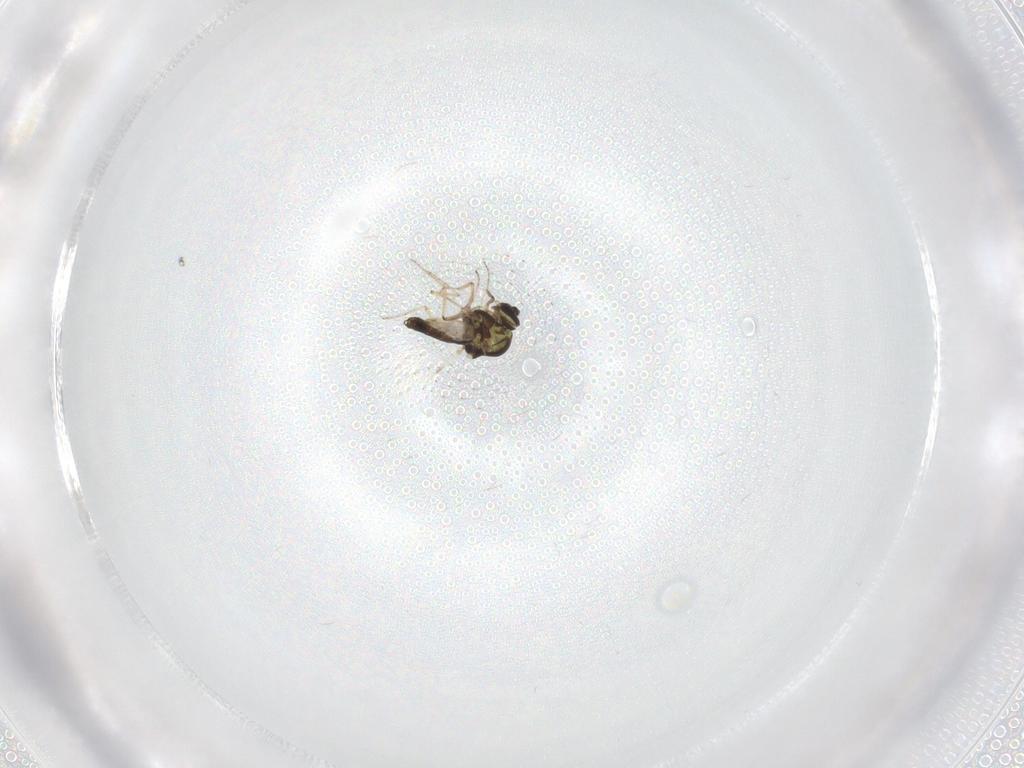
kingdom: Animalia
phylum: Arthropoda
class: Insecta
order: Diptera
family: Ceratopogonidae
